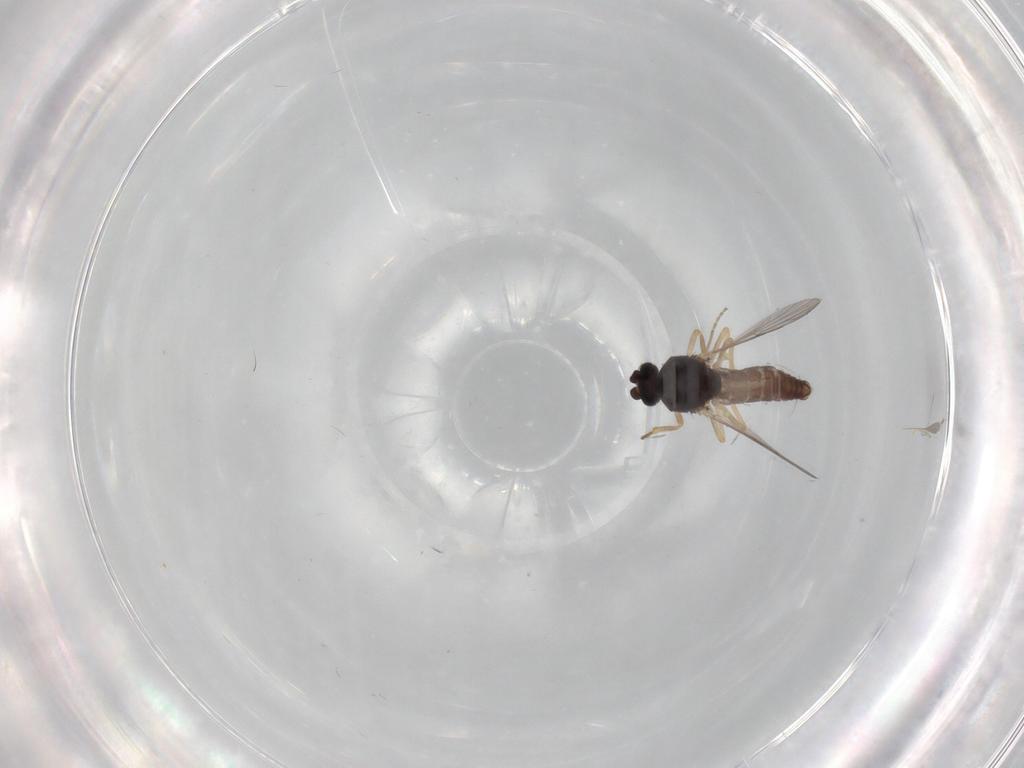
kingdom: Animalia
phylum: Arthropoda
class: Insecta
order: Diptera
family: Ceratopogonidae
